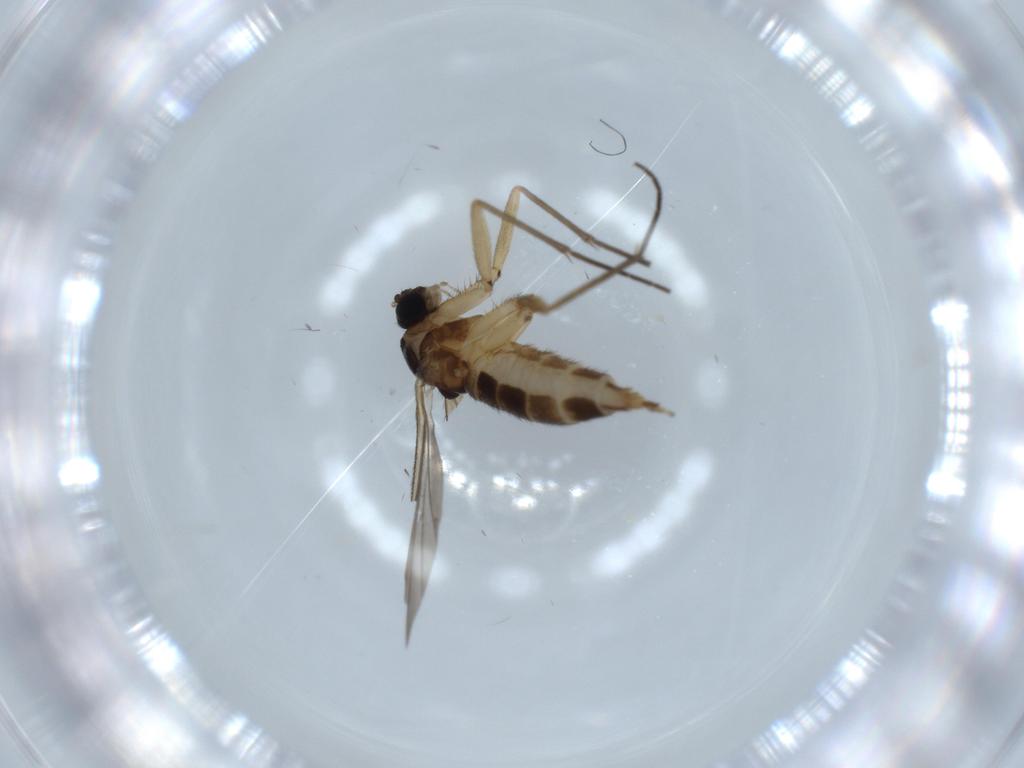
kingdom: Animalia
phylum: Arthropoda
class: Insecta
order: Diptera
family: Sciaridae
